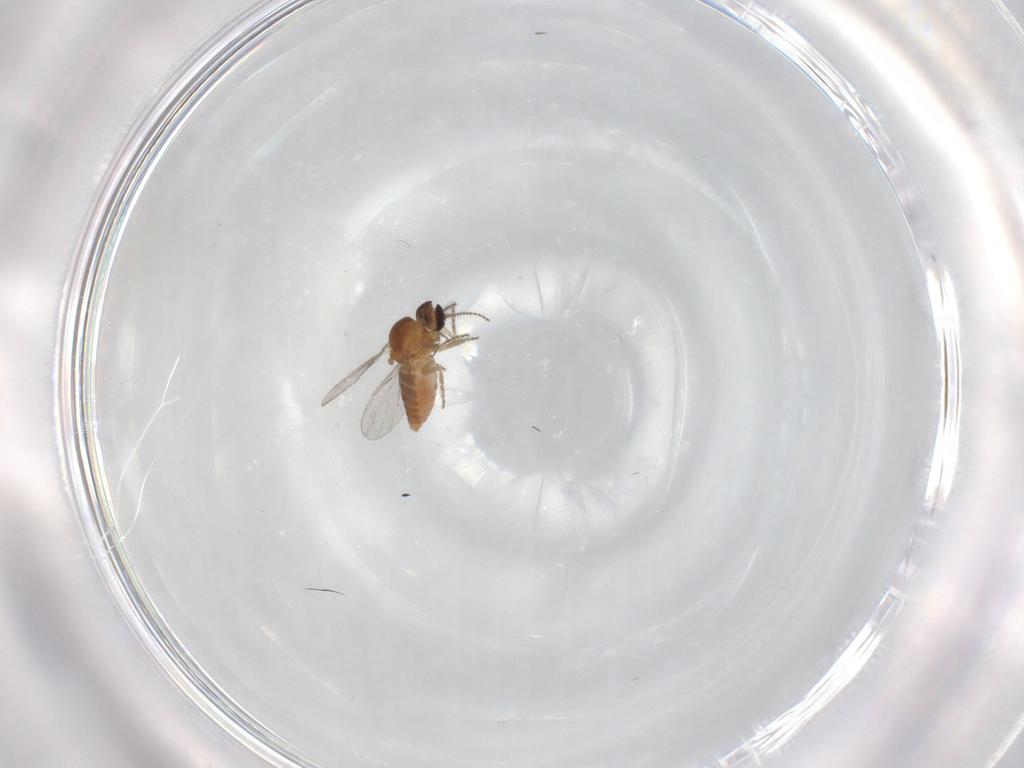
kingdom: Animalia
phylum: Arthropoda
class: Insecta
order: Diptera
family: Ceratopogonidae
